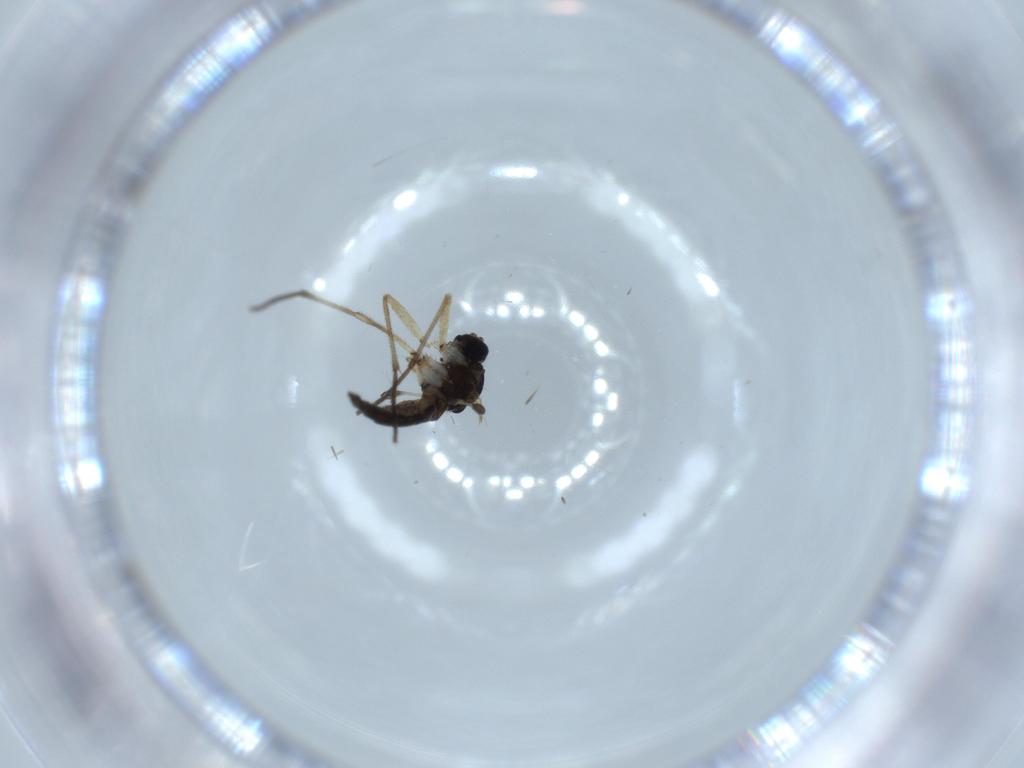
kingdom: Animalia
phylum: Arthropoda
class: Insecta
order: Diptera
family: Sciaridae
